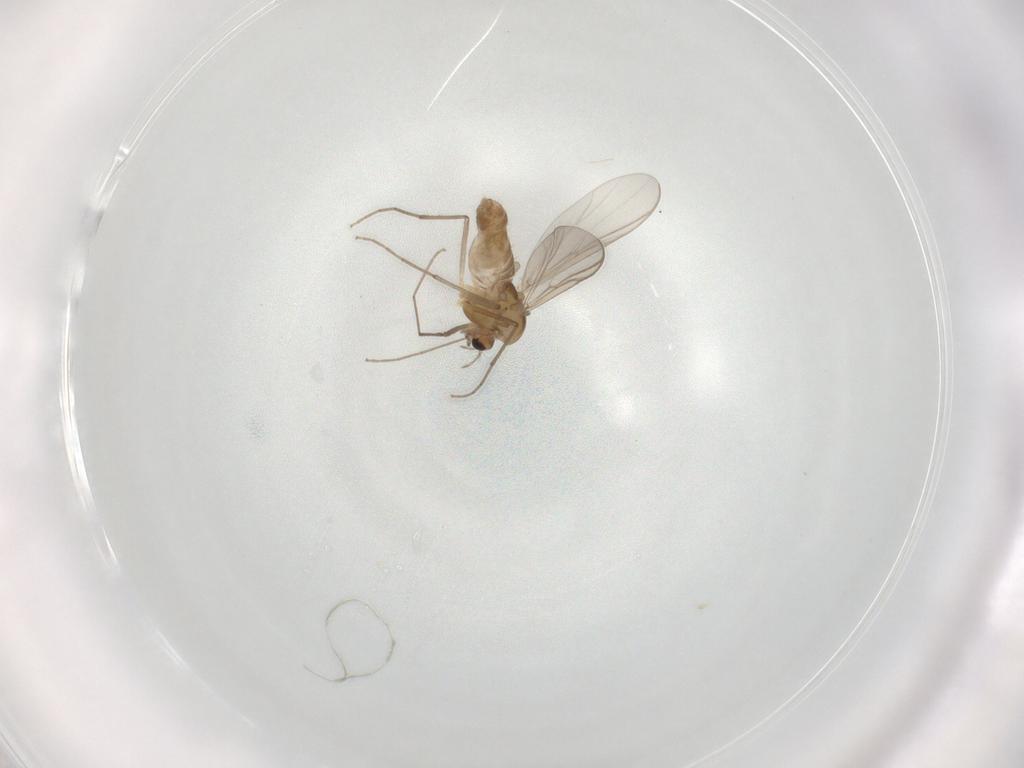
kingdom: Animalia
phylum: Arthropoda
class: Insecta
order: Diptera
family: Chironomidae
